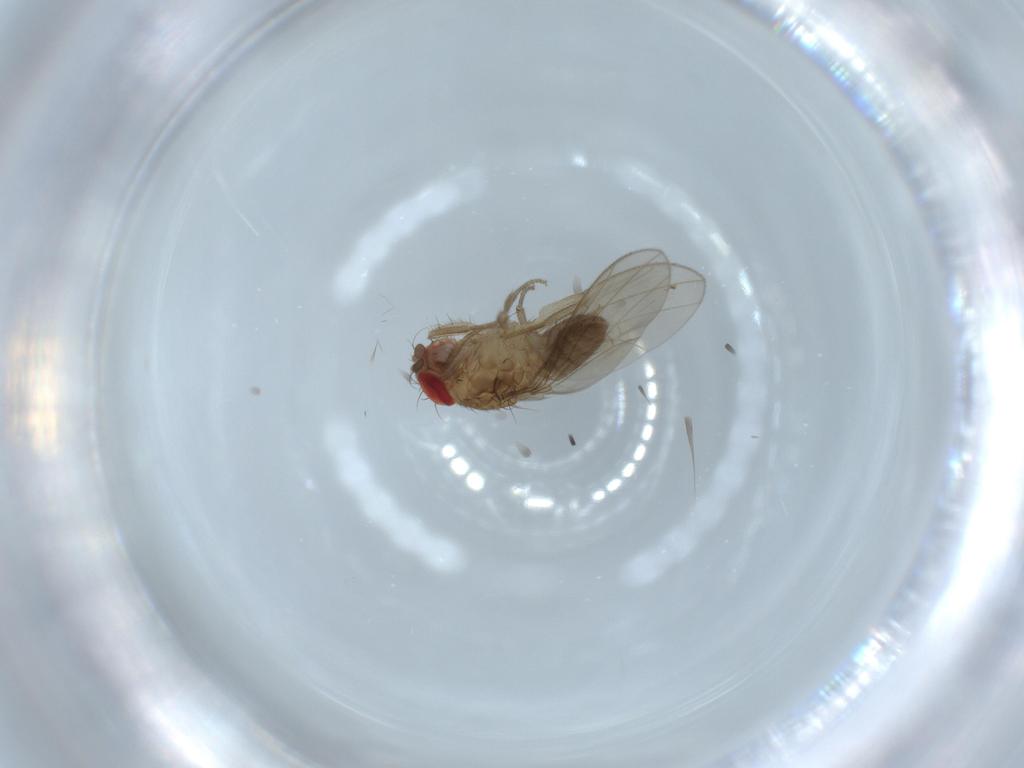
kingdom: Animalia
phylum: Arthropoda
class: Insecta
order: Diptera
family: Drosophilidae
